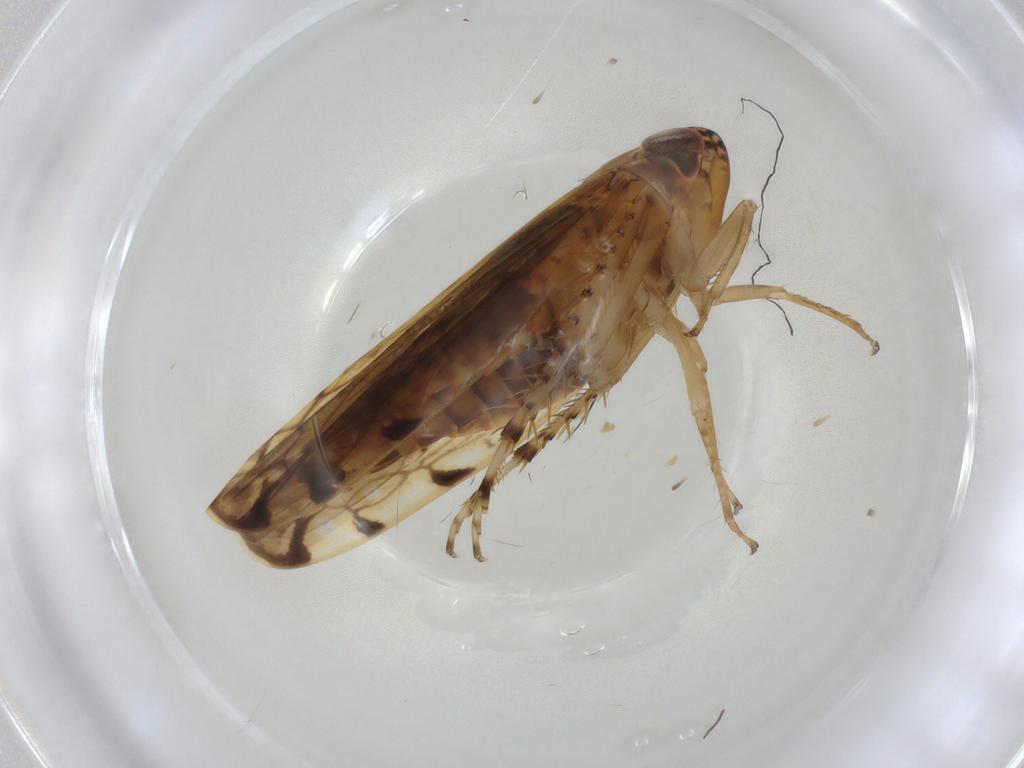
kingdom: Animalia
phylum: Arthropoda
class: Insecta
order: Hemiptera
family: Cicadellidae
